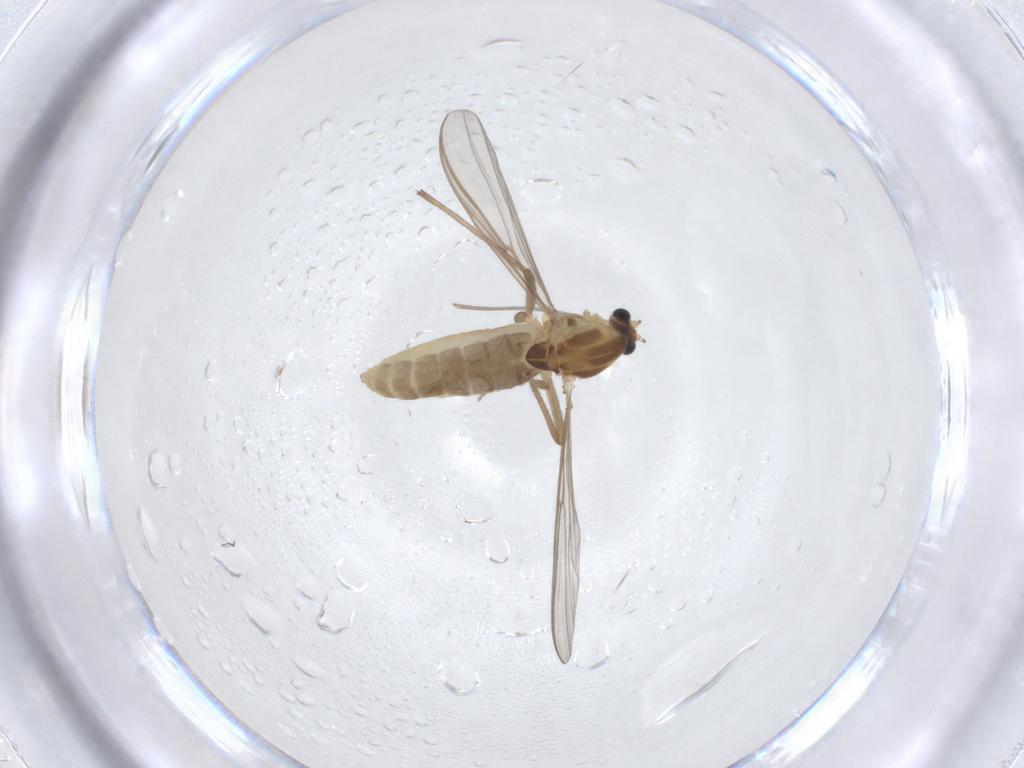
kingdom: Animalia
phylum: Arthropoda
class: Insecta
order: Diptera
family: Chironomidae
